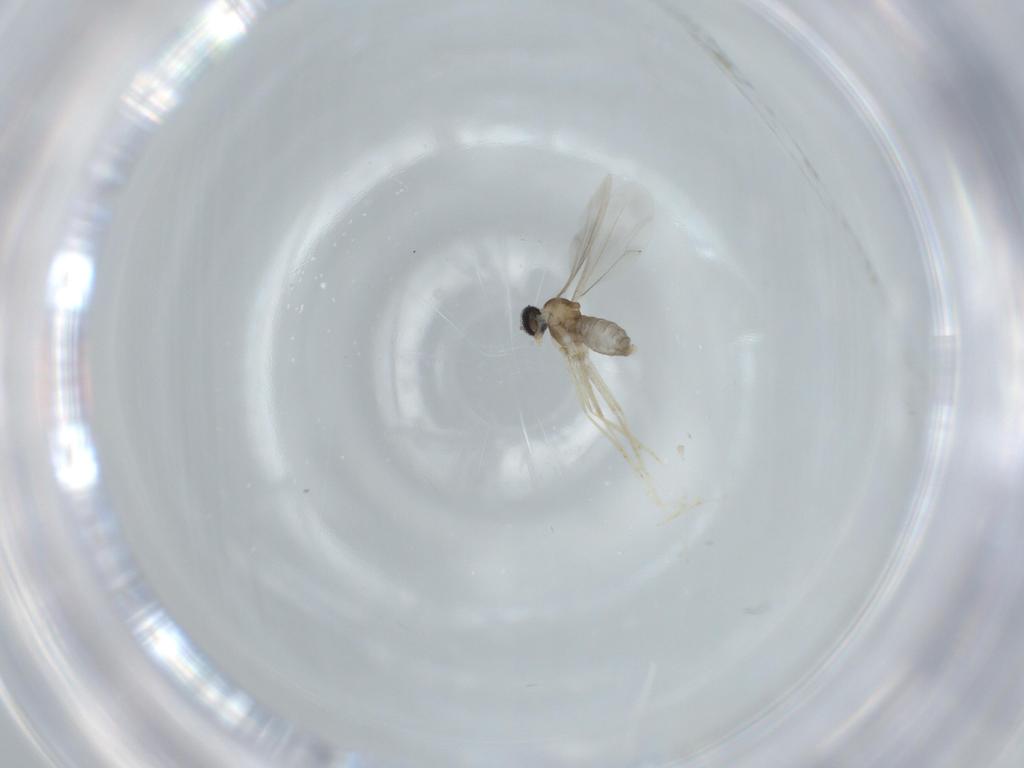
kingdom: Animalia
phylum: Arthropoda
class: Insecta
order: Diptera
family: Cecidomyiidae
